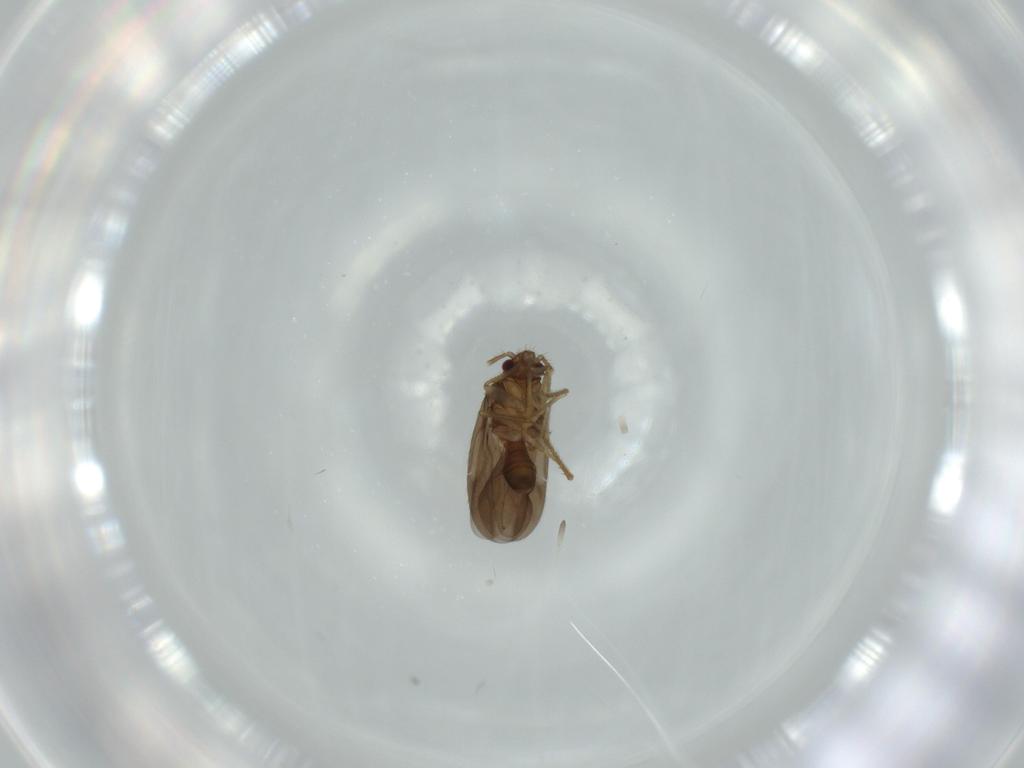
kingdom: Animalia
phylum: Arthropoda
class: Insecta
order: Hemiptera
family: Ceratocombidae
